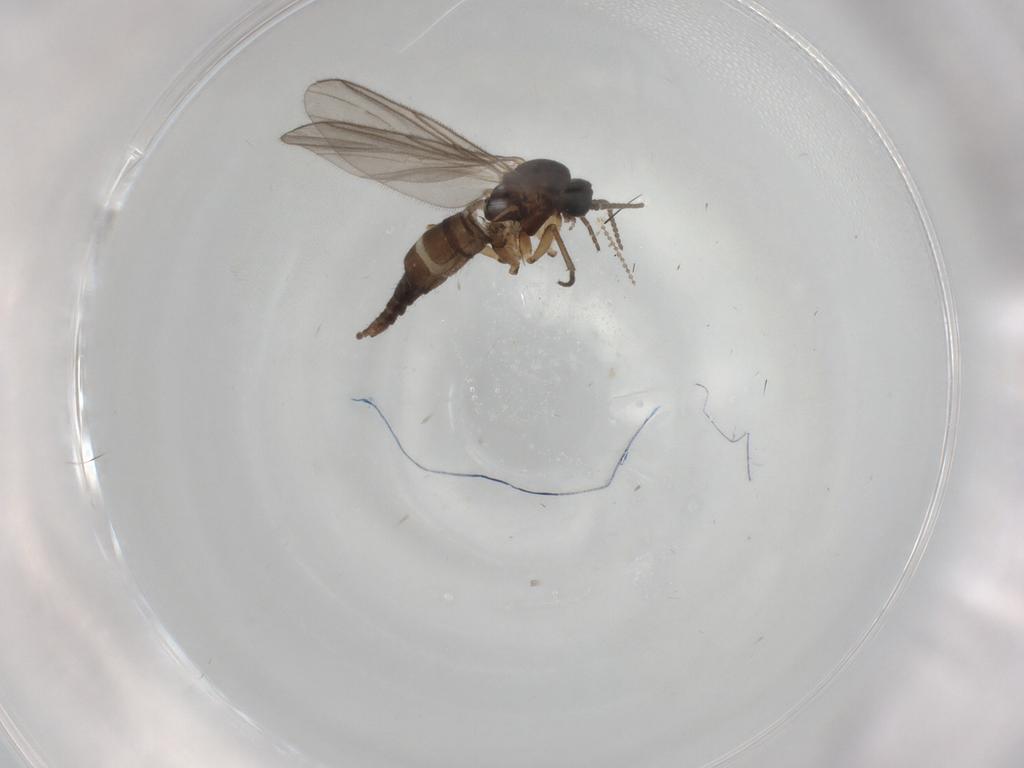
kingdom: Animalia
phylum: Arthropoda
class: Insecta
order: Diptera
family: Sciaridae
